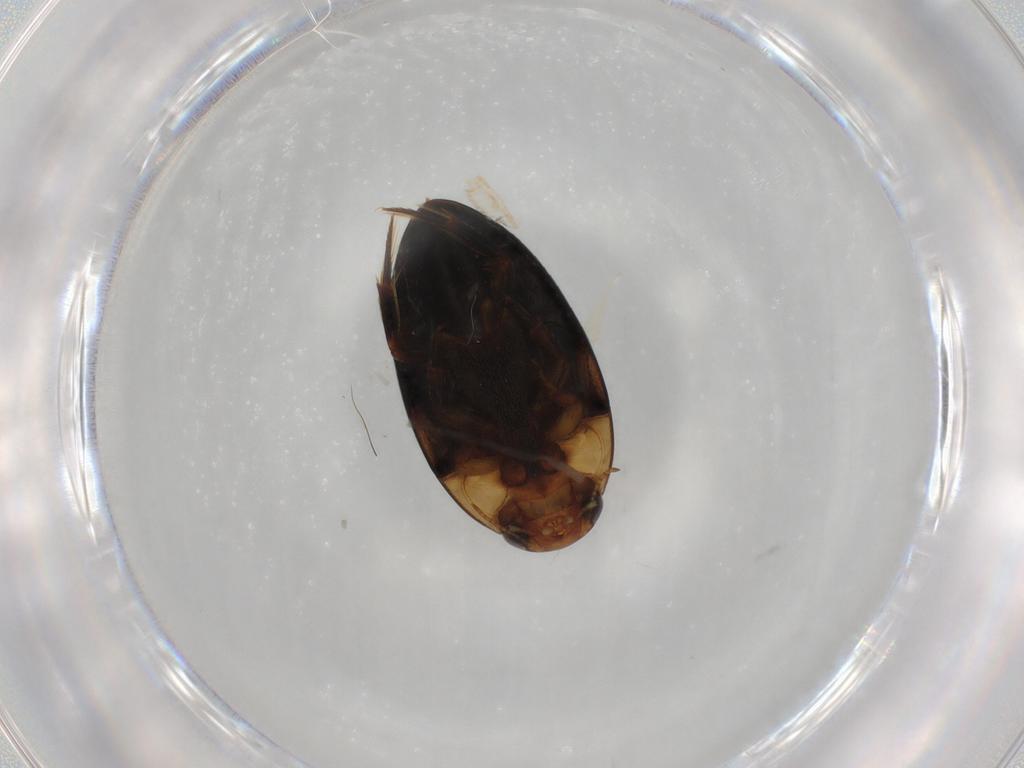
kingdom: Animalia
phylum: Arthropoda
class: Insecta
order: Coleoptera
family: Noteridae
